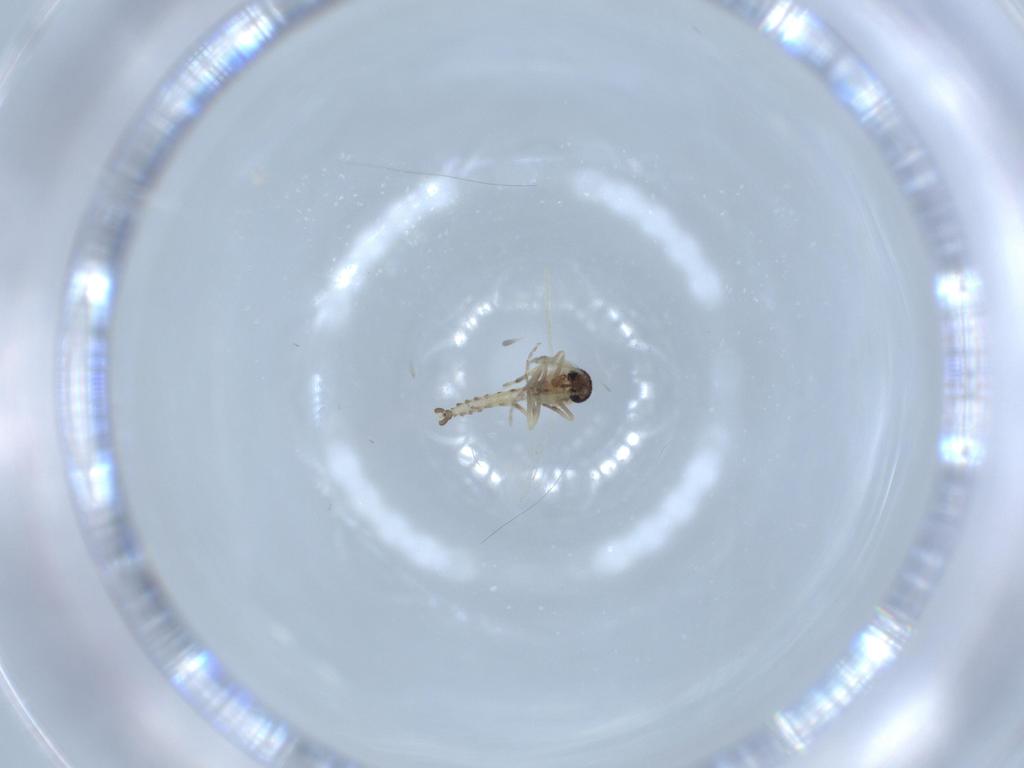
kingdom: Animalia
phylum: Arthropoda
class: Insecta
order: Diptera
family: Ceratopogonidae
